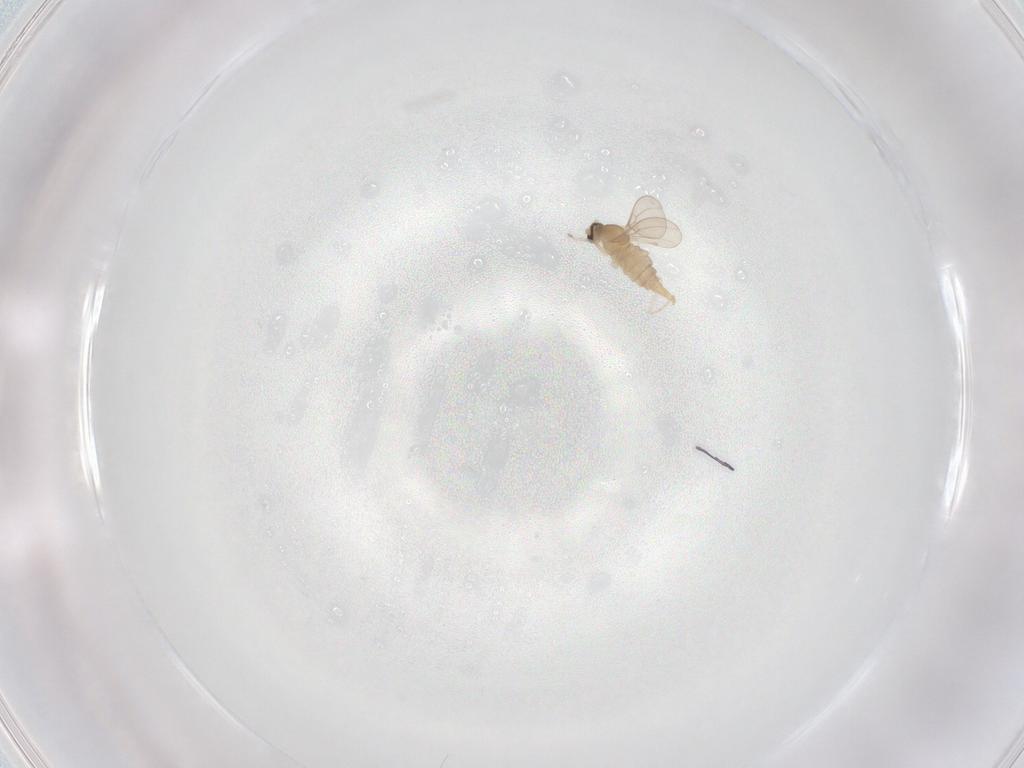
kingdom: Animalia
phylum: Arthropoda
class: Insecta
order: Diptera
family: Cecidomyiidae
